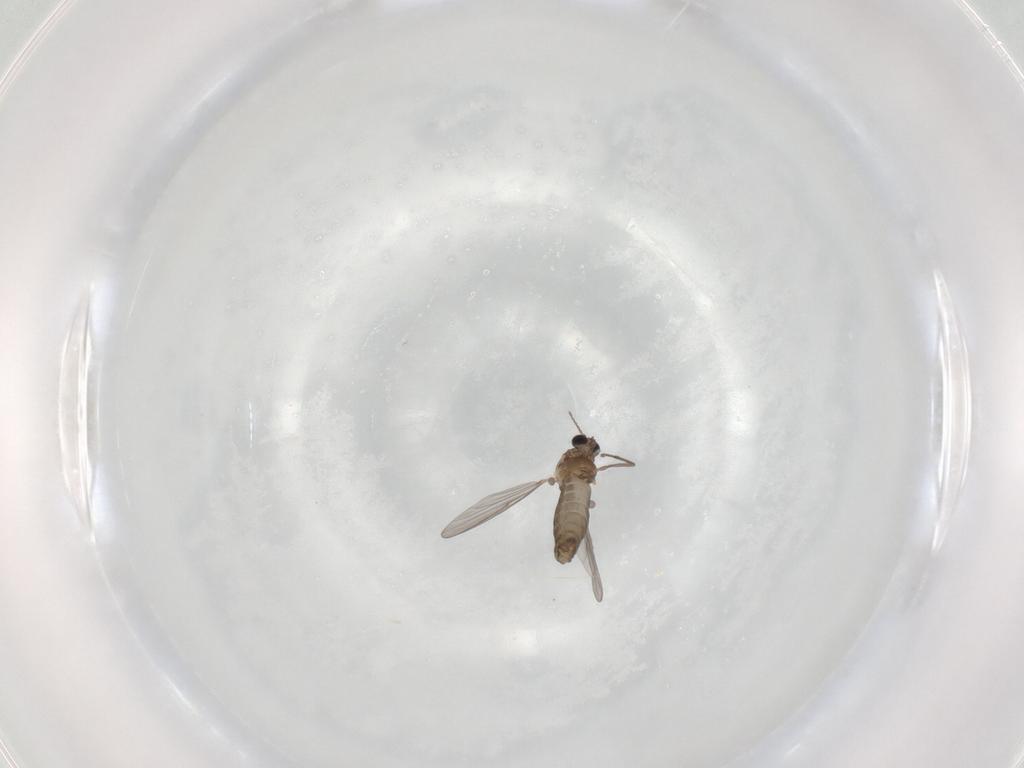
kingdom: Animalia
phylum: Arthropoda
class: Insecta
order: Diptera
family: Chironomidae
